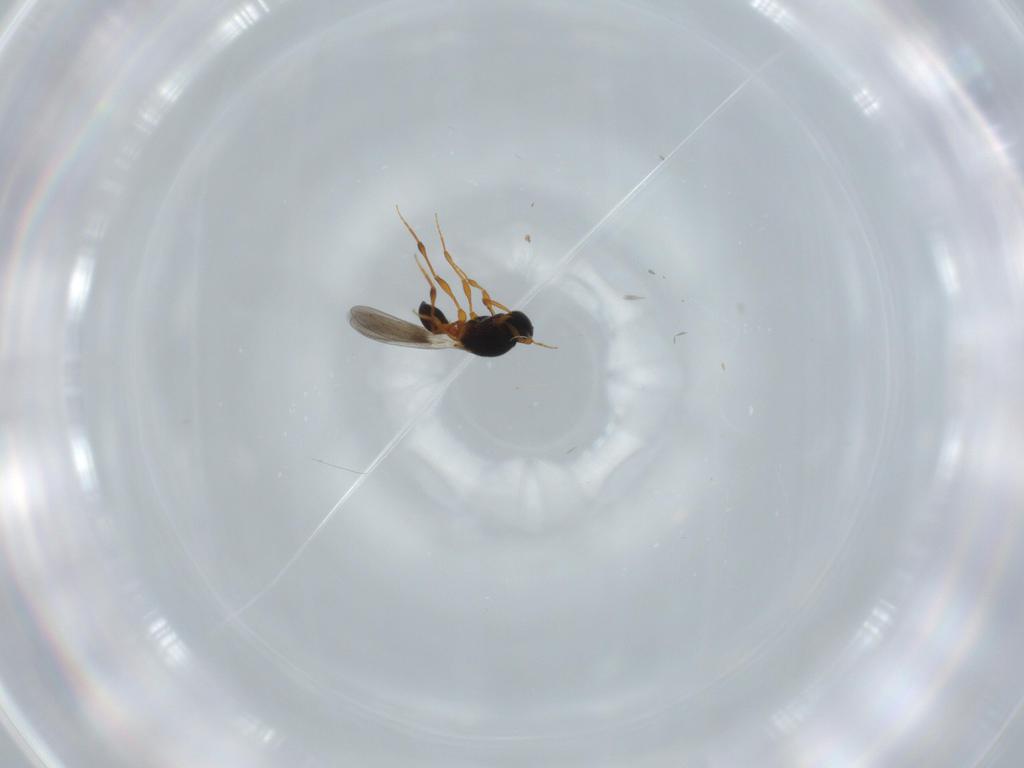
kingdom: Animalia
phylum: Arthropoda
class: Insecta
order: Hymenoptera
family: Platygastridae
